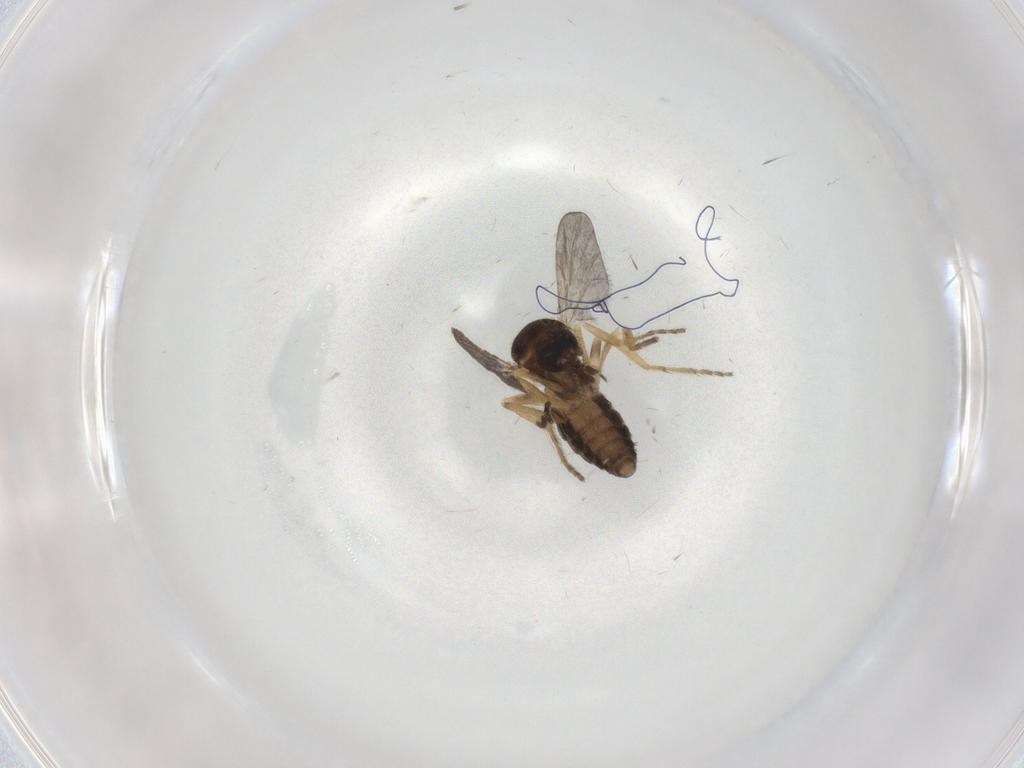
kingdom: Animalia
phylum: Arthropoda
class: Insecta
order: Diptera
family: Ceratopogonidae
